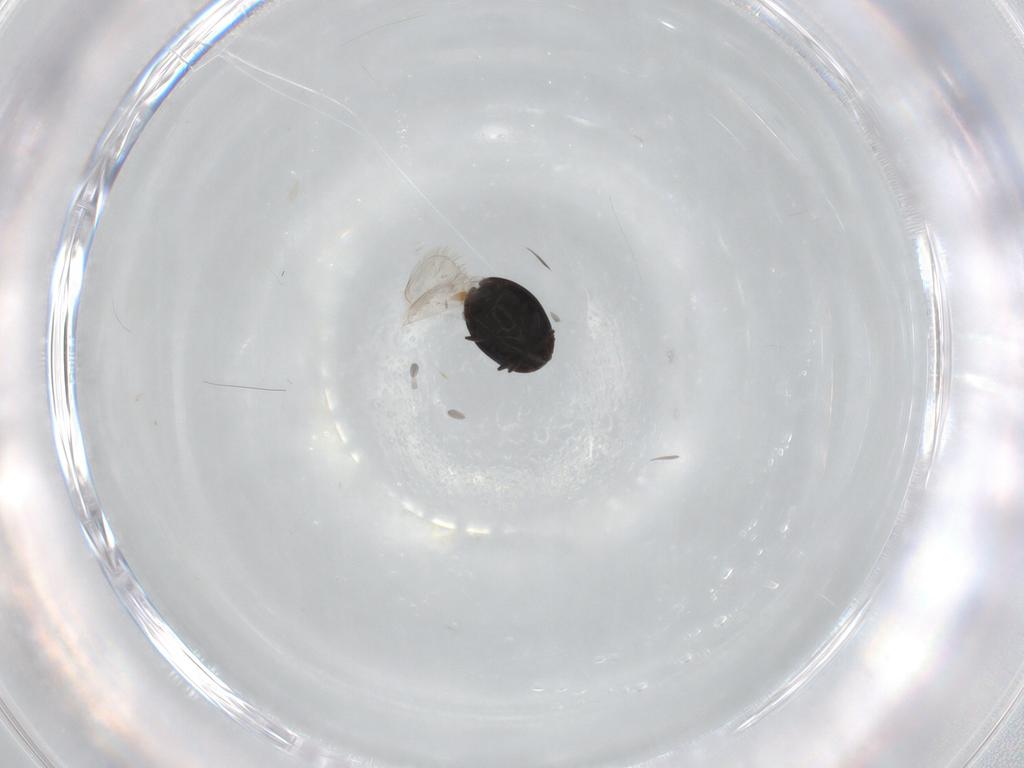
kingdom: Animalia
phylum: Arthropoda
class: Insecta
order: Coleoptera
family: Corylophidae
